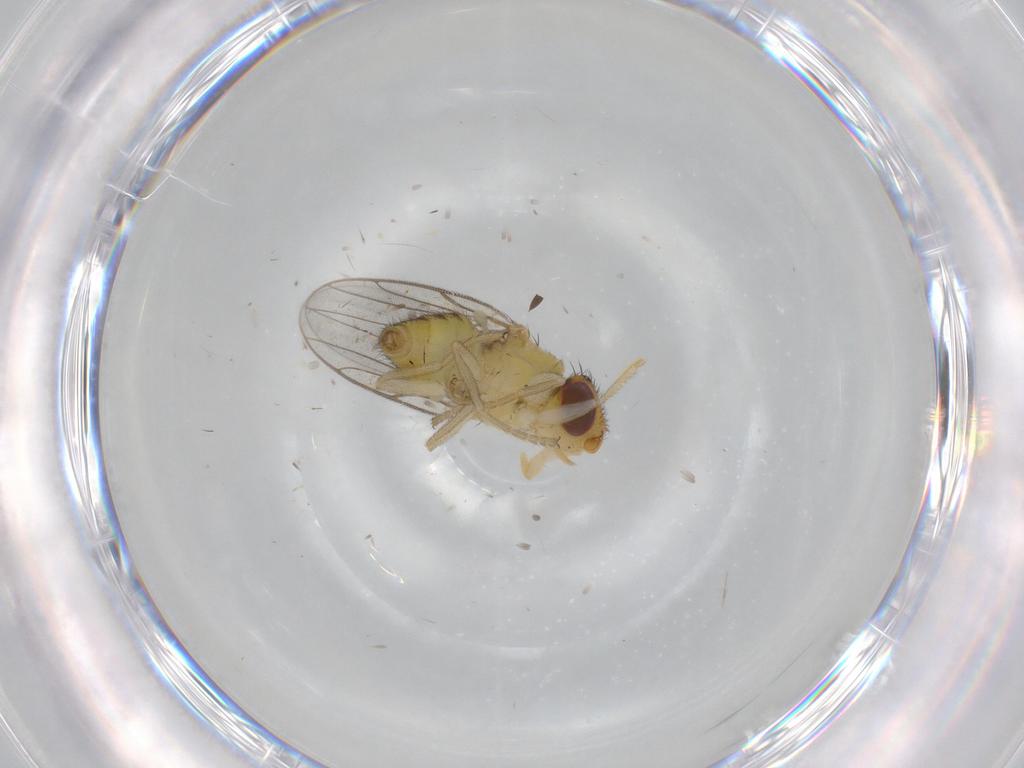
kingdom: Animalia
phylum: Arthropoda
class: Insecta
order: Diptera
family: Chloropidae
